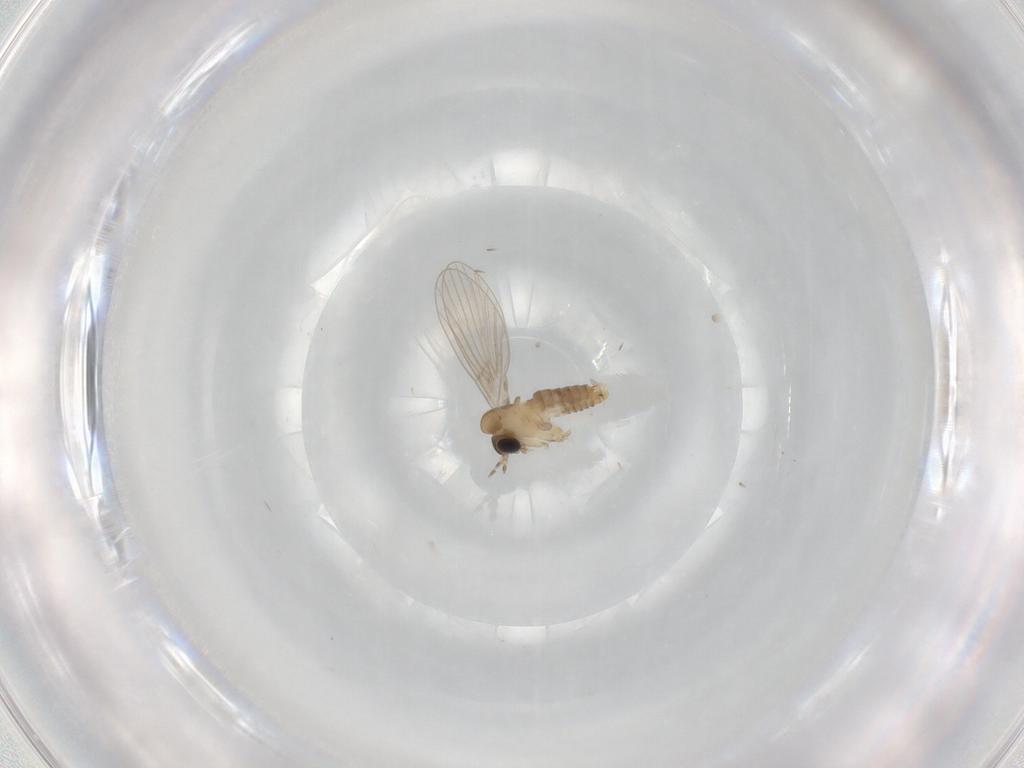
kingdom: Animalia
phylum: Arthropoda
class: Insecta
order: Diptera
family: Psychodidae
